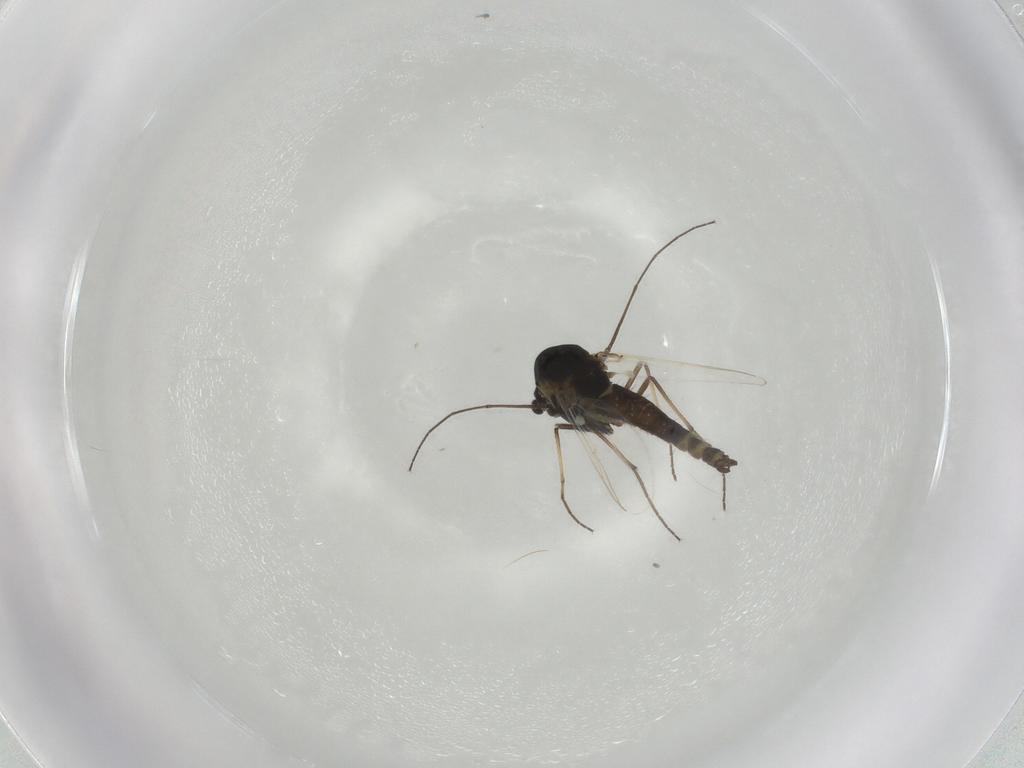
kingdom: Animalia
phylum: Arthropoda
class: Insecta
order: Diptera
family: Chironomidae
